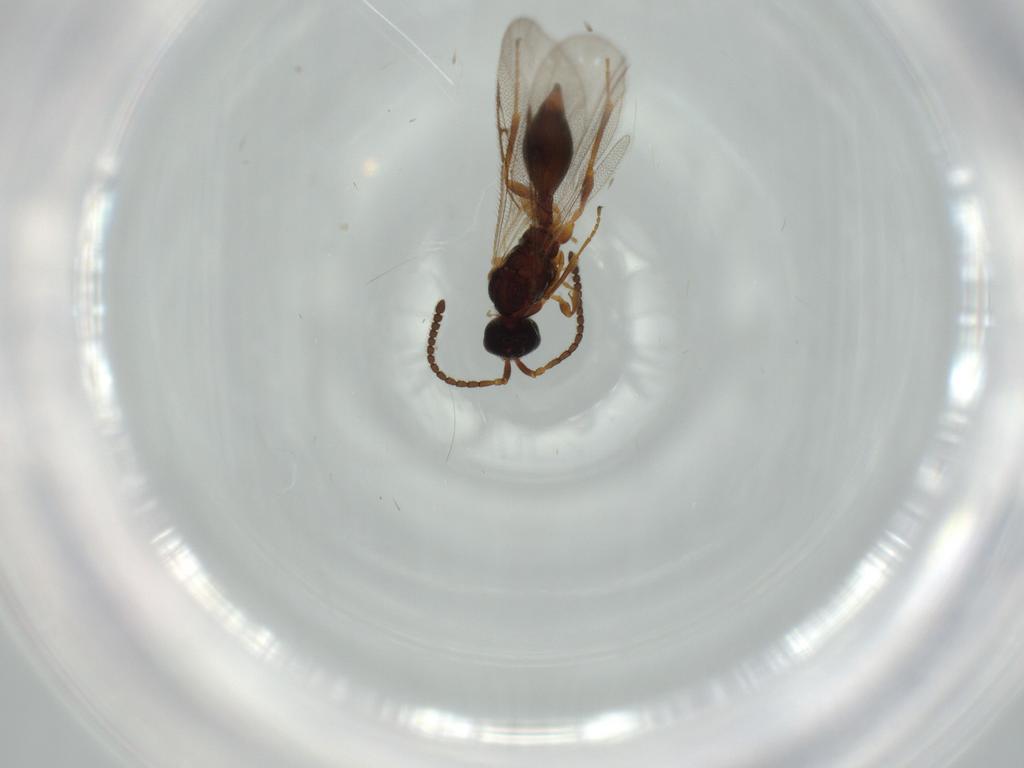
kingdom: Animalia
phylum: Arthropoda
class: Insecta
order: Hymenoptera
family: Diapriidae
